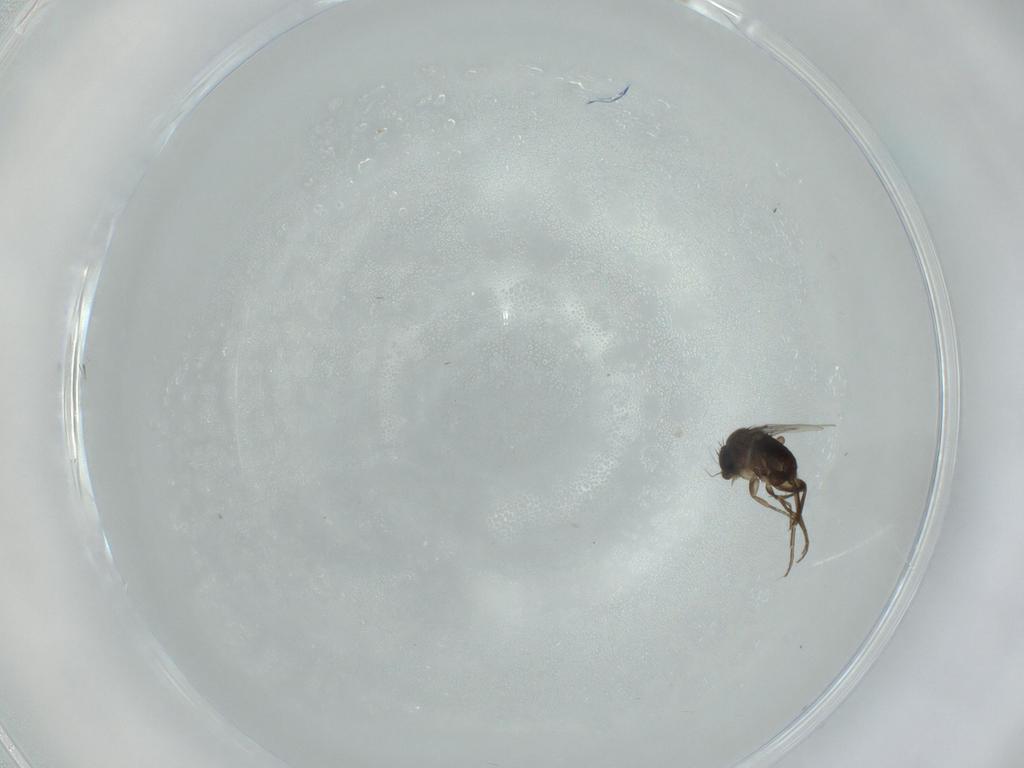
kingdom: Animalia
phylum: Arthropoda
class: Insecta
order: Diptera
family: Phoridae
